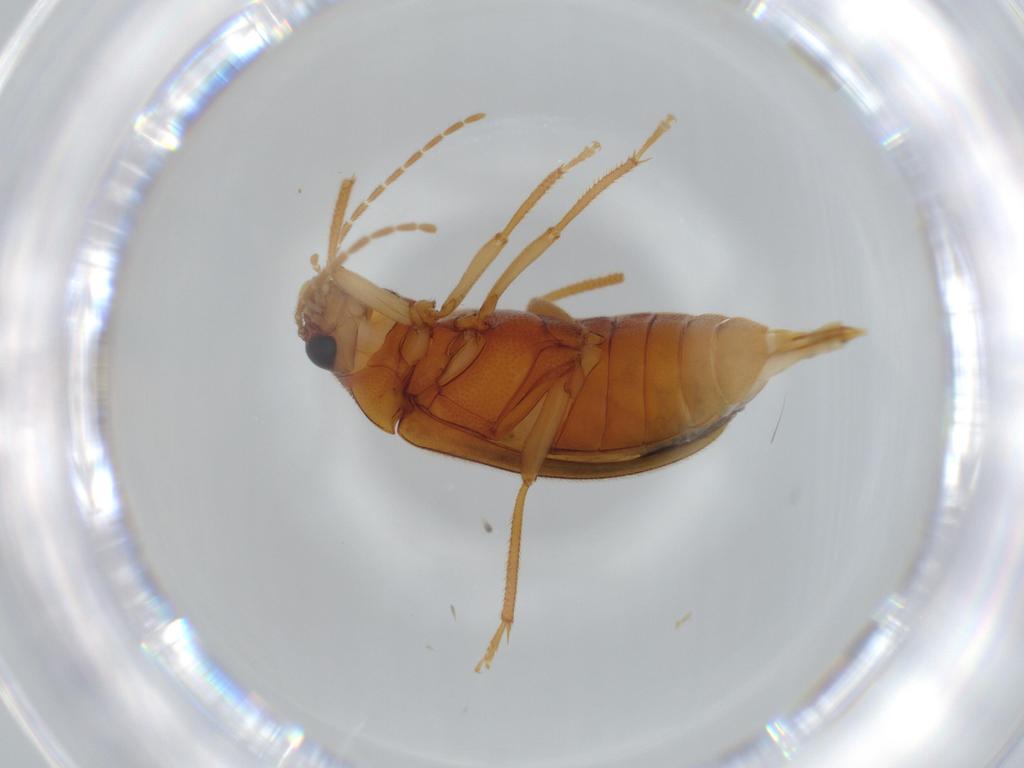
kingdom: Animalia
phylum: Arthropoda
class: Insecta
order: Coleoptera
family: Ptilodactylidae
